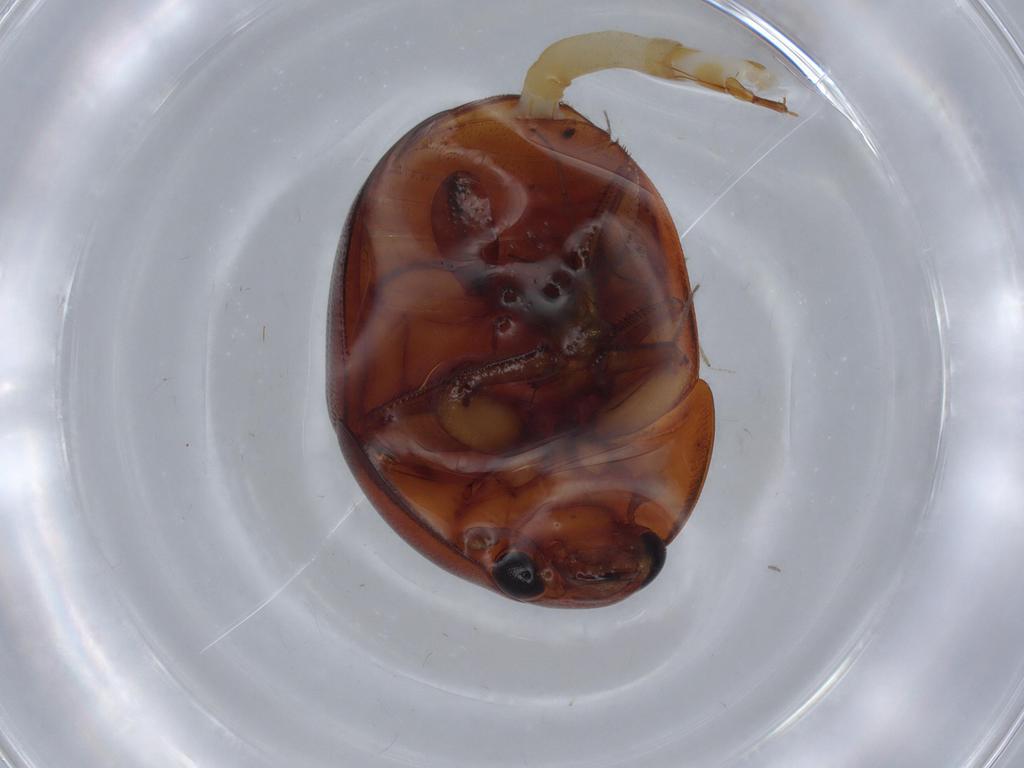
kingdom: Animalia
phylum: Arthropoda
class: Insecta
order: Coleoptera
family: Nitidulidae
